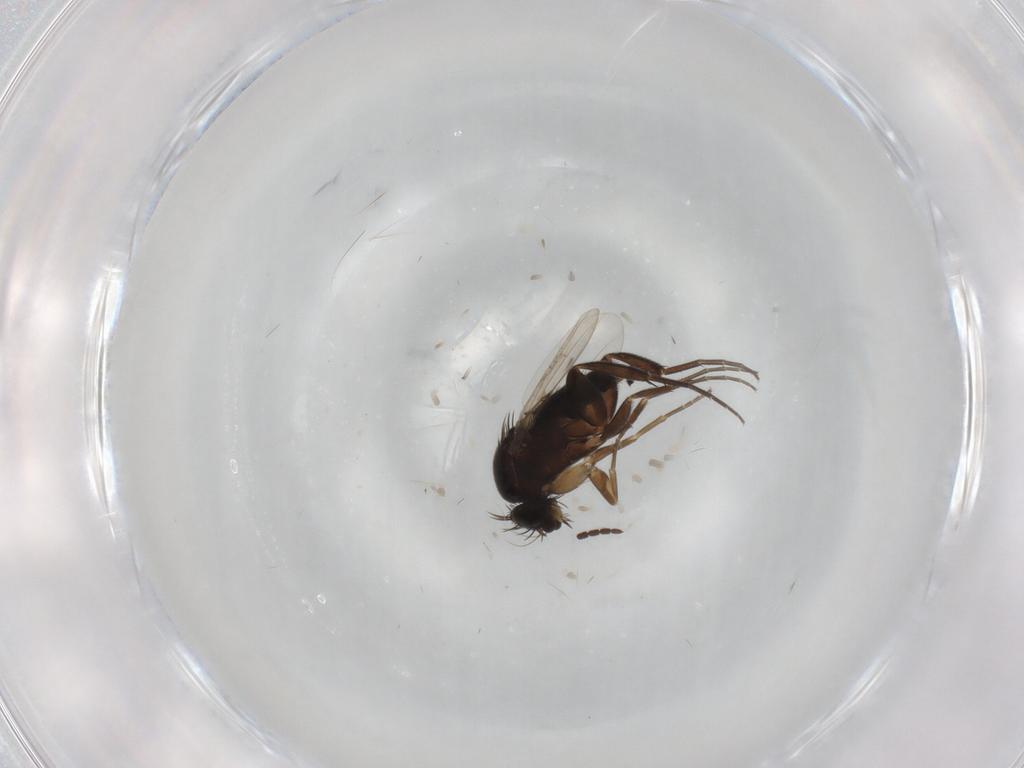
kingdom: Animalia
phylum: Arthropoda
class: Insecta
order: Diptera
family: Phoridae
